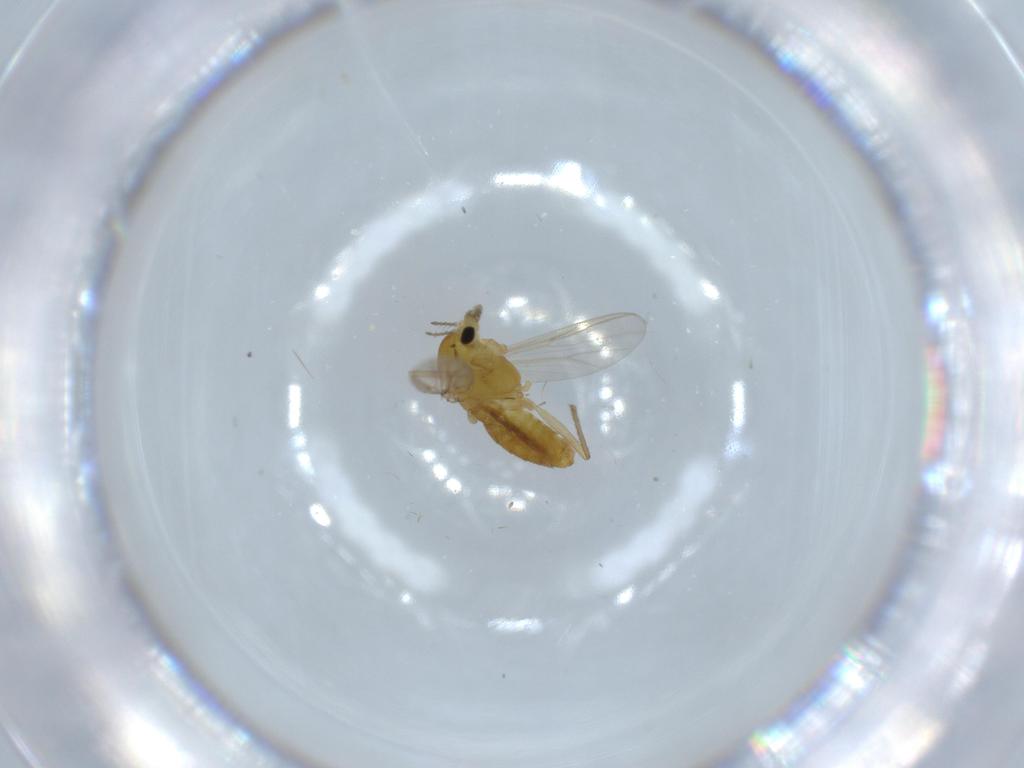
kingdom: Animalia
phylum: Arthropoda
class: Insecta
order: Diptera
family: Chironomidae
